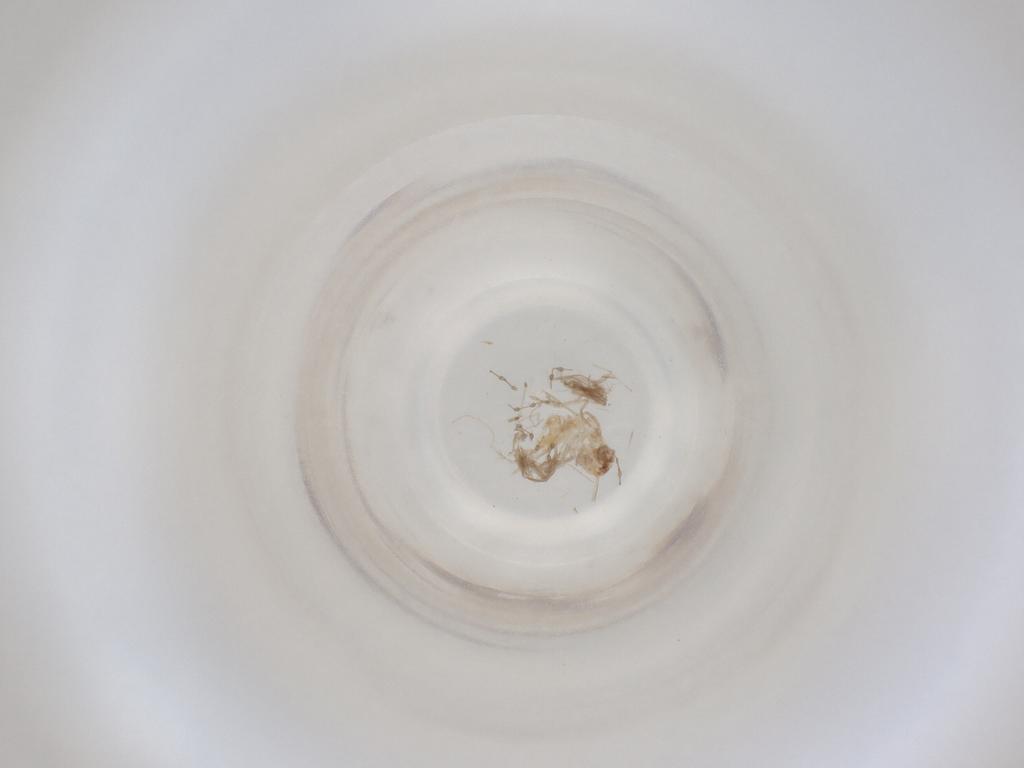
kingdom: Animalia
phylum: Arthropoda
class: Insecta
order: Diptera
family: Cecidomyiidae
